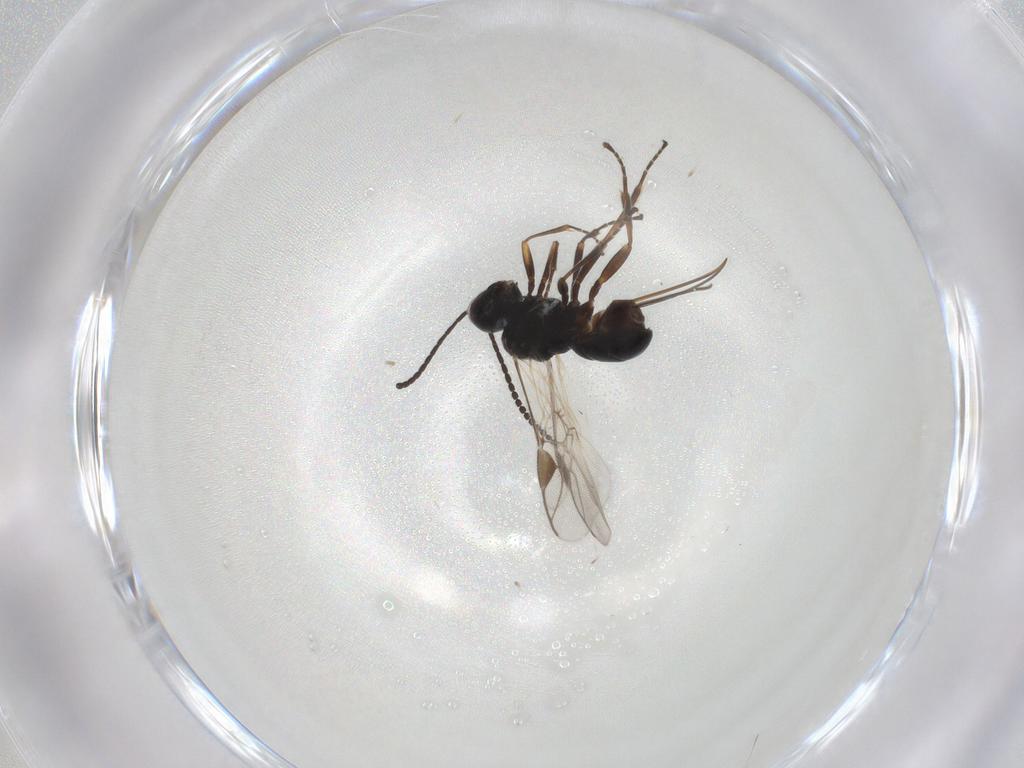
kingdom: Animalia
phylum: Arthropoda
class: Insecta
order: Hymenoptera
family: Braconidae
